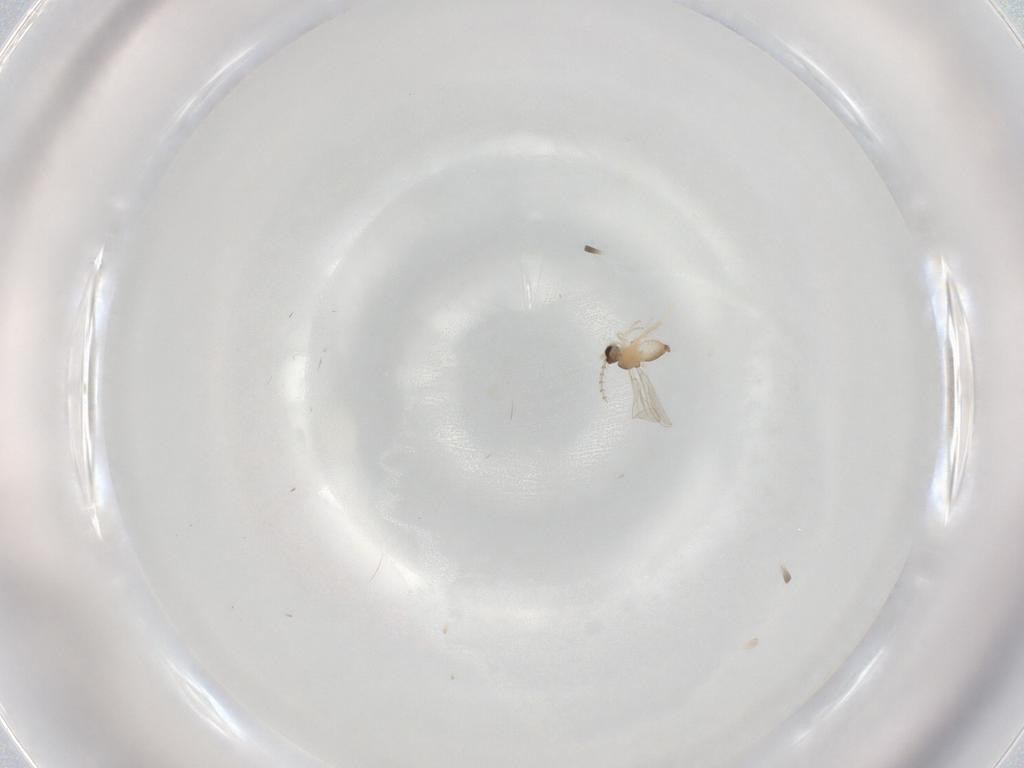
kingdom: Animalia
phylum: Arthropoda
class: Insecta
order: Diptera
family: Cecidomyiidae
